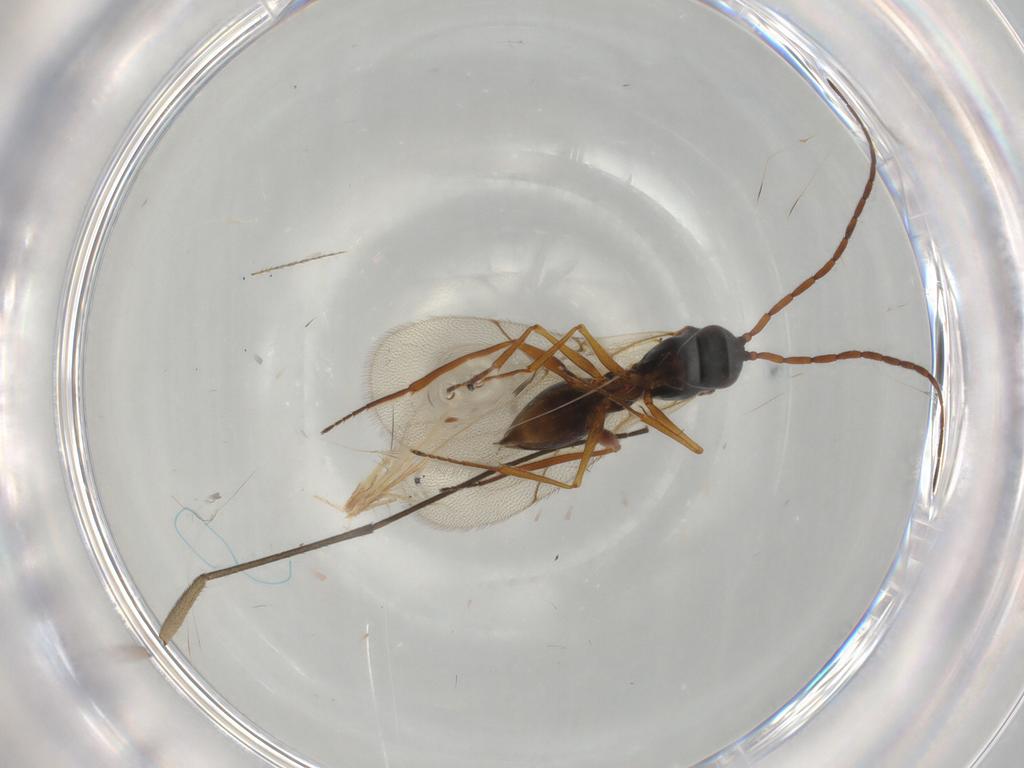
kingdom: Animalia
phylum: Arthropoda
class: Insecta
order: Hymenoptera
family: Figitidae
